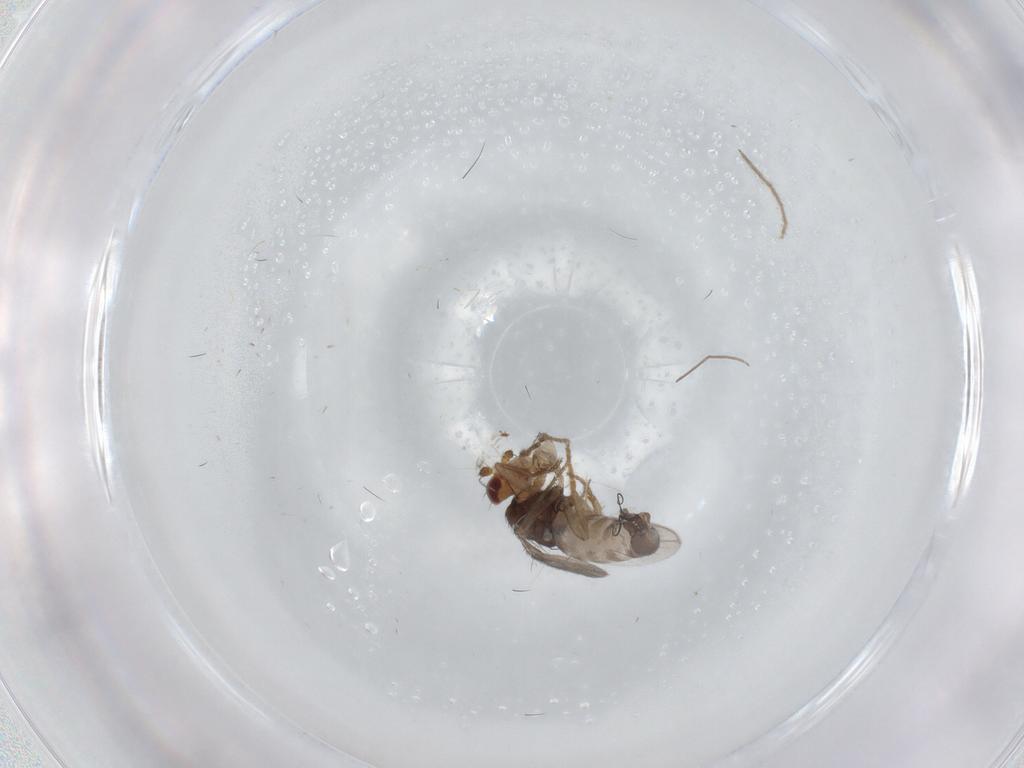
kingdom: Animalia
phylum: Arthropoda
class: Insecta
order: Diptera
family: Sphaeroceridae
